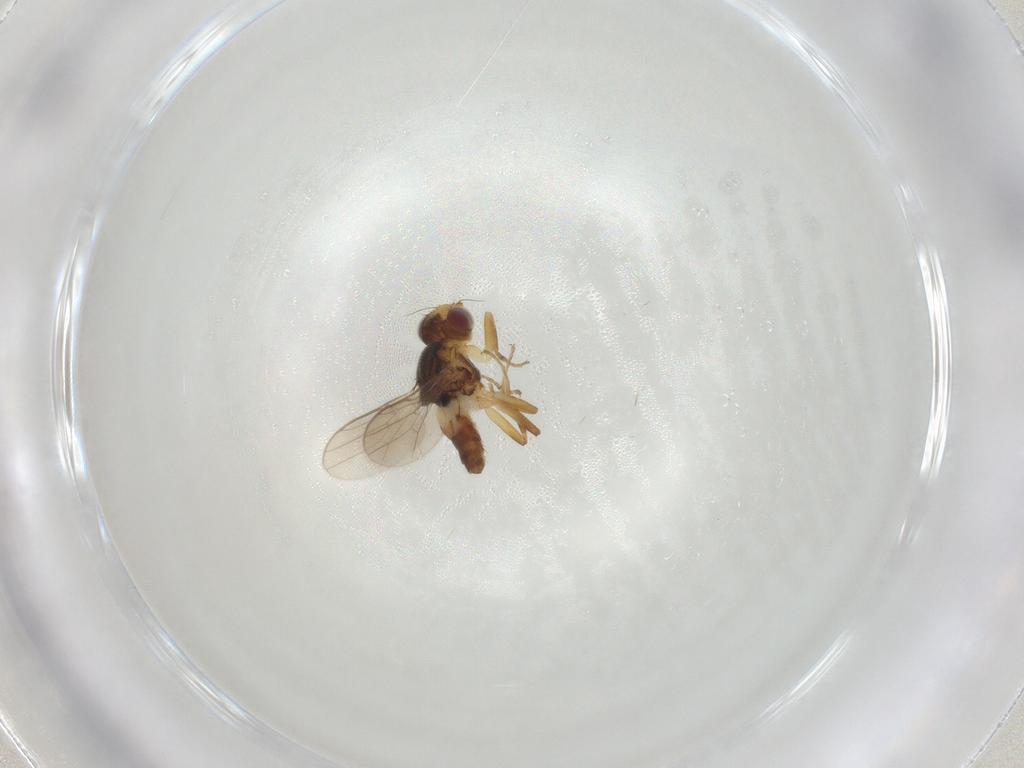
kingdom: Animalia
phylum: Arthropoda
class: Insecta
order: Diptera
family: Chloropidae
